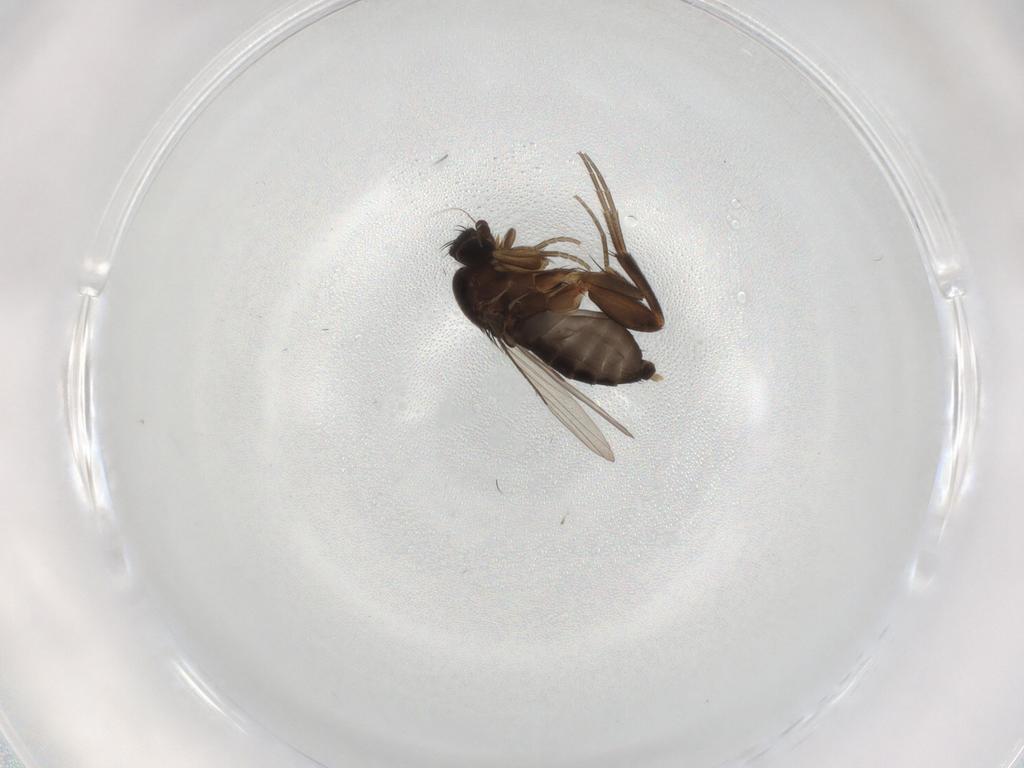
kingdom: Animalia
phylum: Arthropoda
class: Insecta
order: Diptera
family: Phoridae
